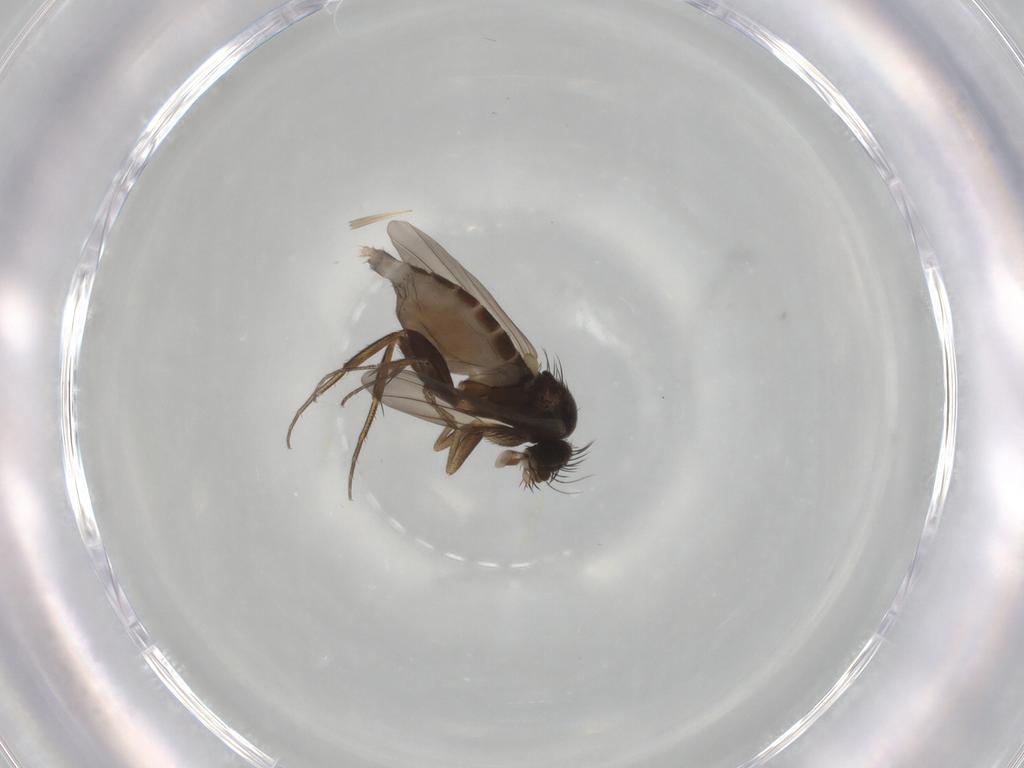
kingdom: Animalia
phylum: Arthropoda
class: Insecta
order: Diptera
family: Phoridae
